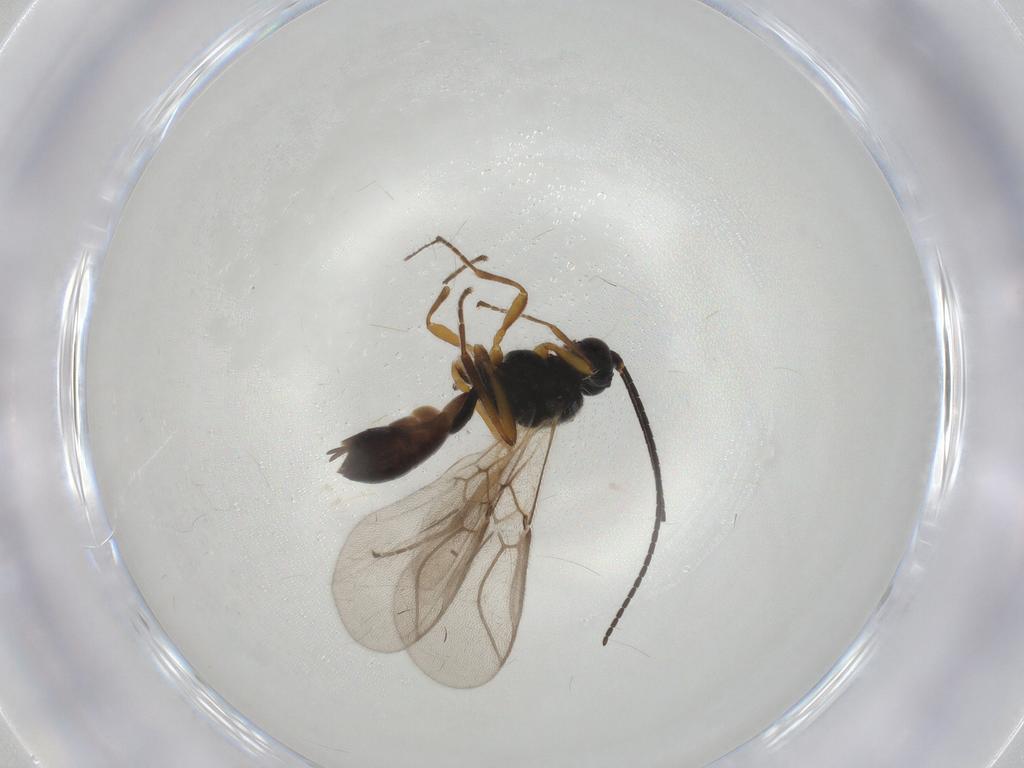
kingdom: Animalia
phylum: Arthropoda
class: Insecta
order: Hymenoptera
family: Braconidae
